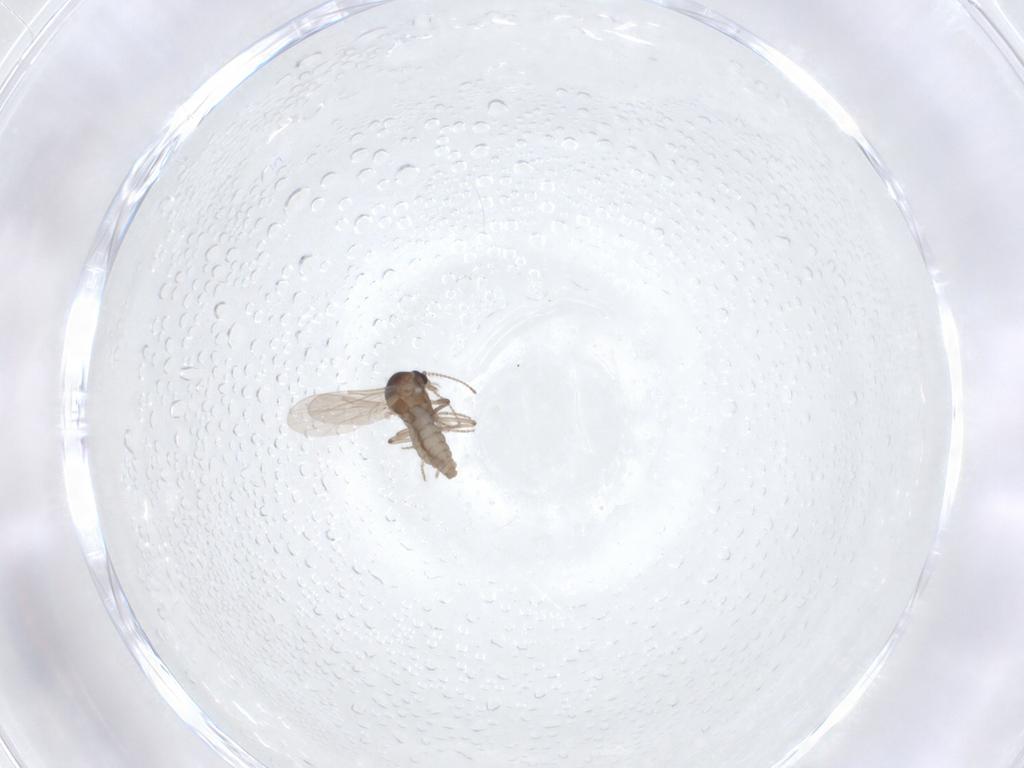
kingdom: Animalia
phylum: Arthropoda
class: Insecta
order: Diptera
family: Ceratopogonidae
